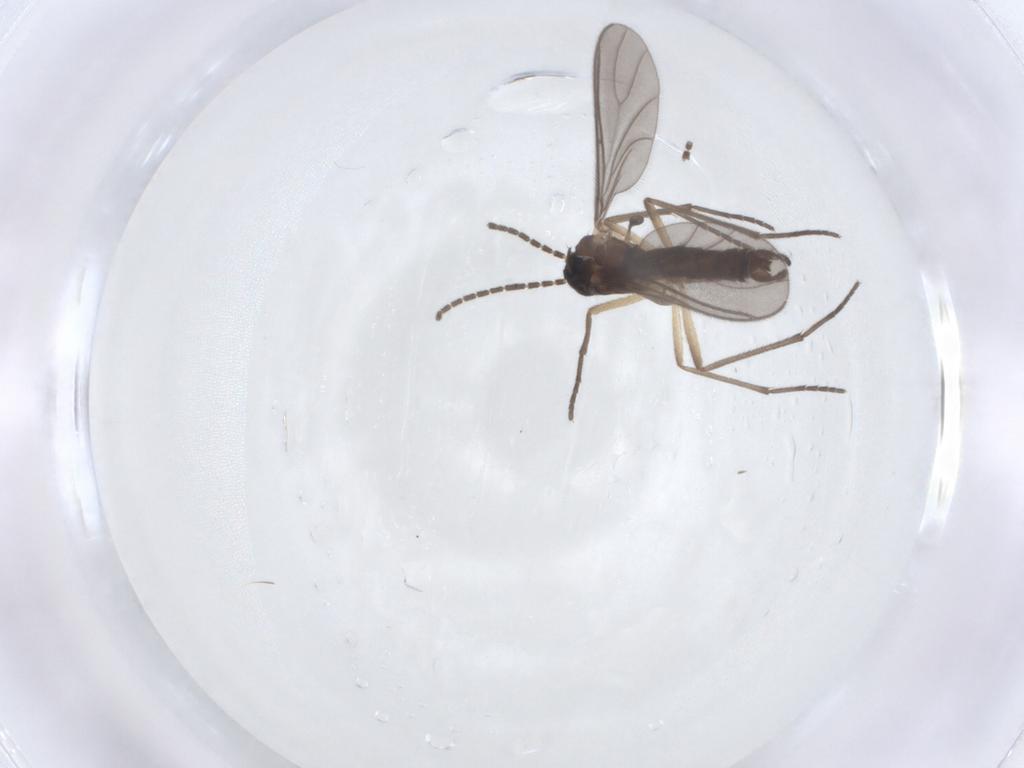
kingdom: Animalia
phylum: Arthropoda
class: Insecta
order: Diptera
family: Sciaridae
